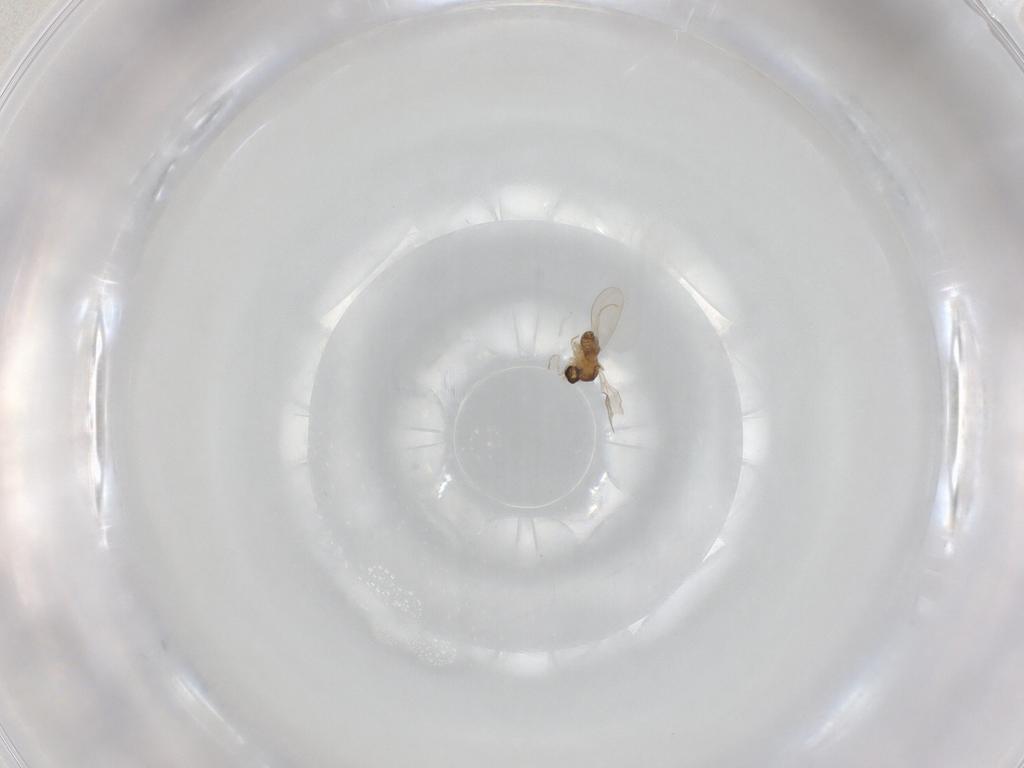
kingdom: Animalia
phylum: Arthropoda
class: Insecta
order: Diptera
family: Cecidomyiidae
